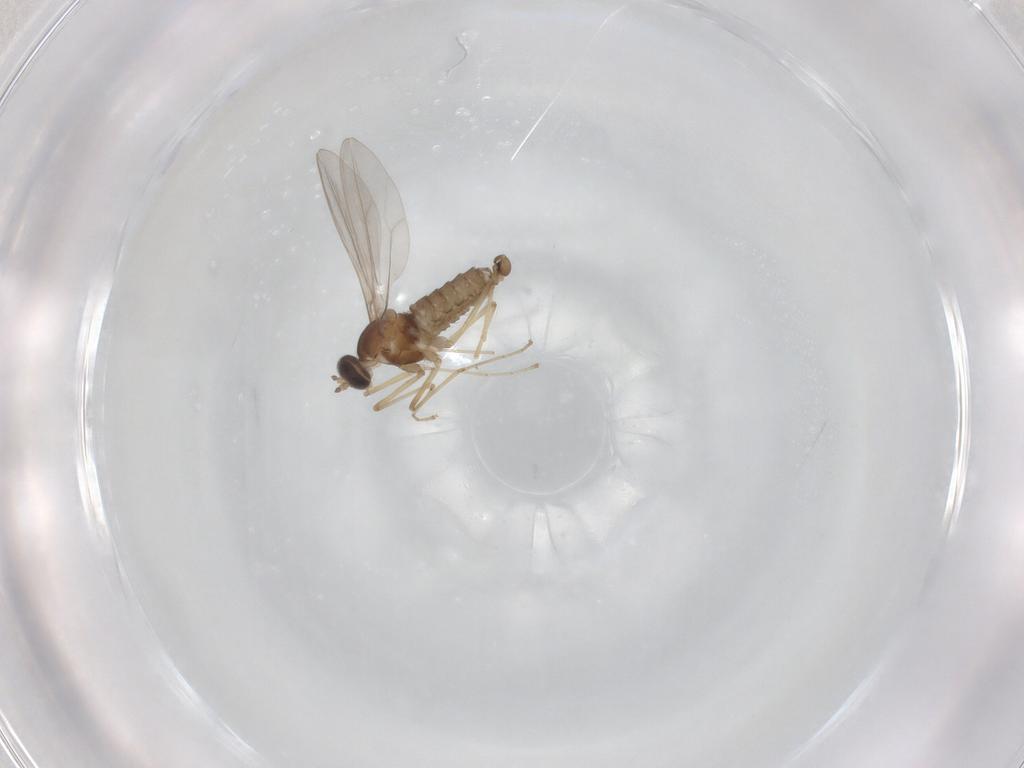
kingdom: Animalia
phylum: Arthropoda
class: Insecta
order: Diptera
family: Cecidomyiidae
